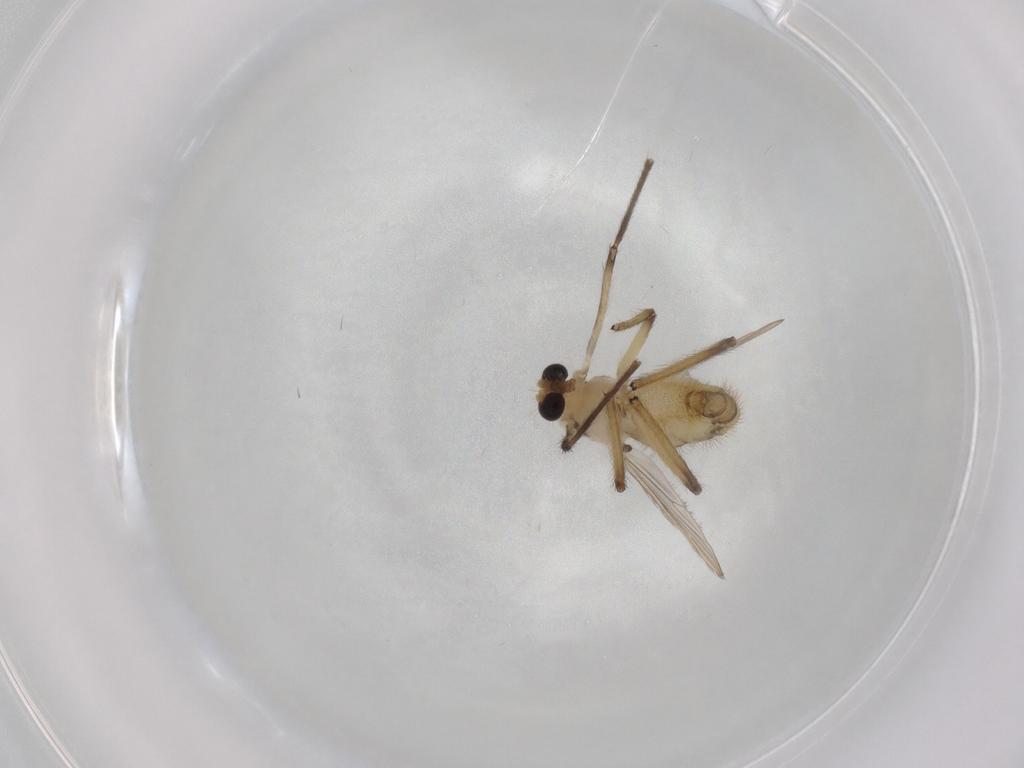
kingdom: Animalia
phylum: Arthropoda
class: Insecta
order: Diptera
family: Chironomidae
